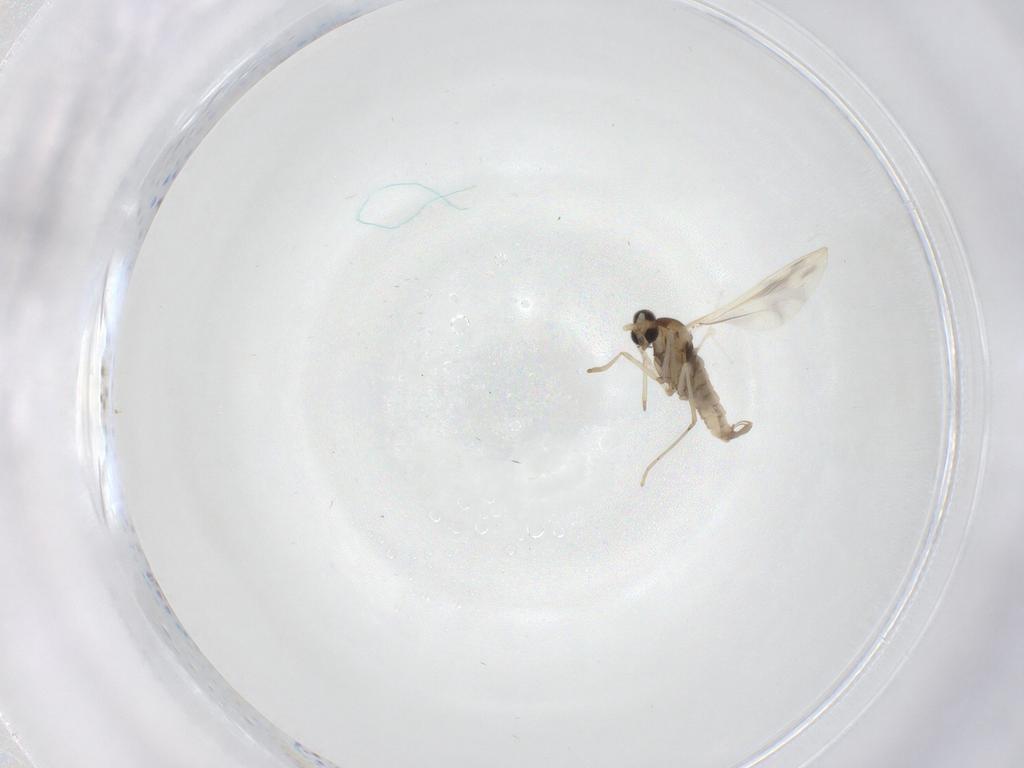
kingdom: Animalia
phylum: Arthropoda
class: Insecta
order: Diptera
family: Cecidomyiidae
